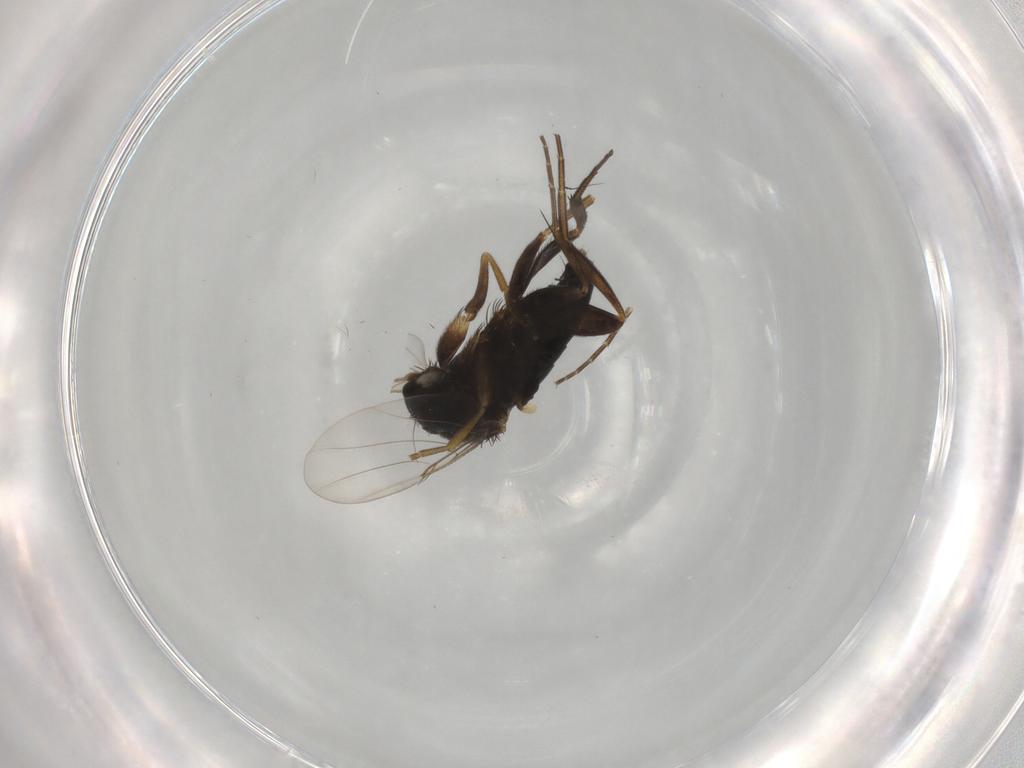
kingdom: Animalia
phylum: Arthropoda
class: Insecta
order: Diptera
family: Phoridae
